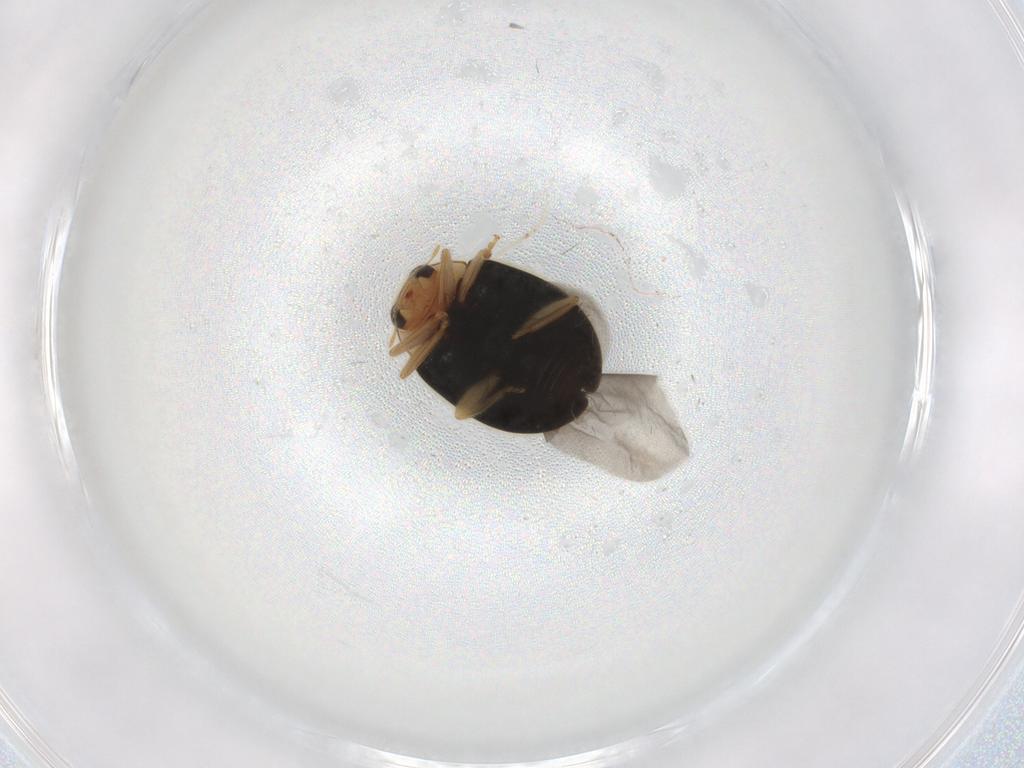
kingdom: Animalia
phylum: Arthropoda
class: Insecta
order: Coleoptera
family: Coccinellidae
